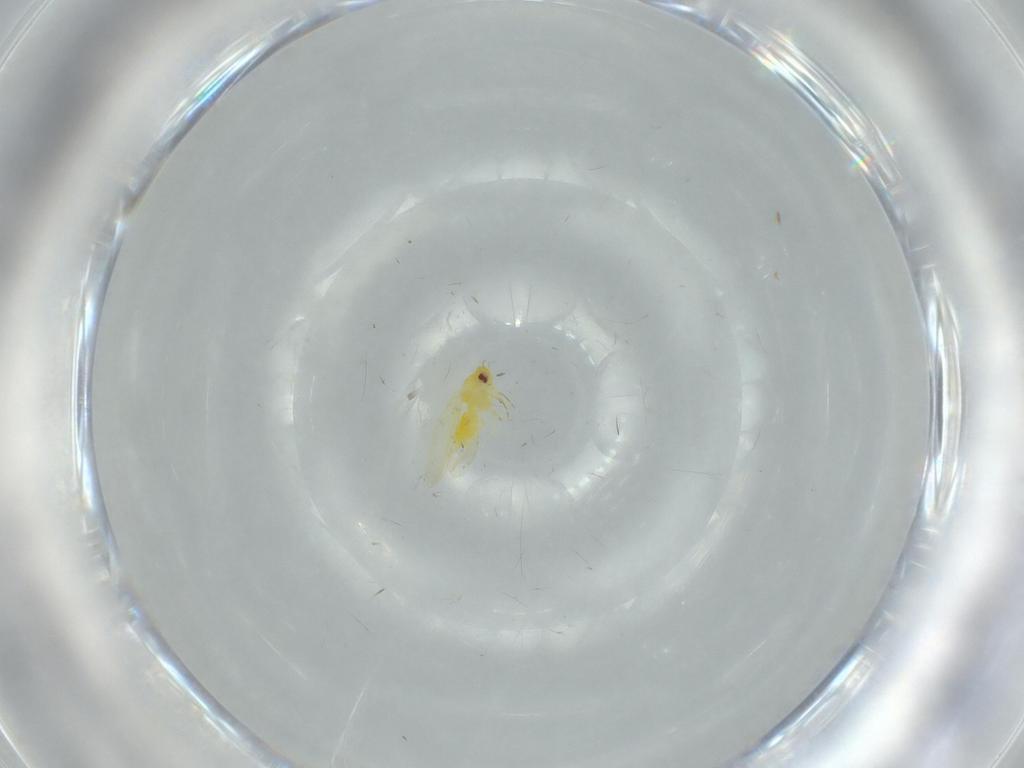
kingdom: Animalia
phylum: Arthropoda
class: Insecta
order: Hemiptera
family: Aleyrodidae
